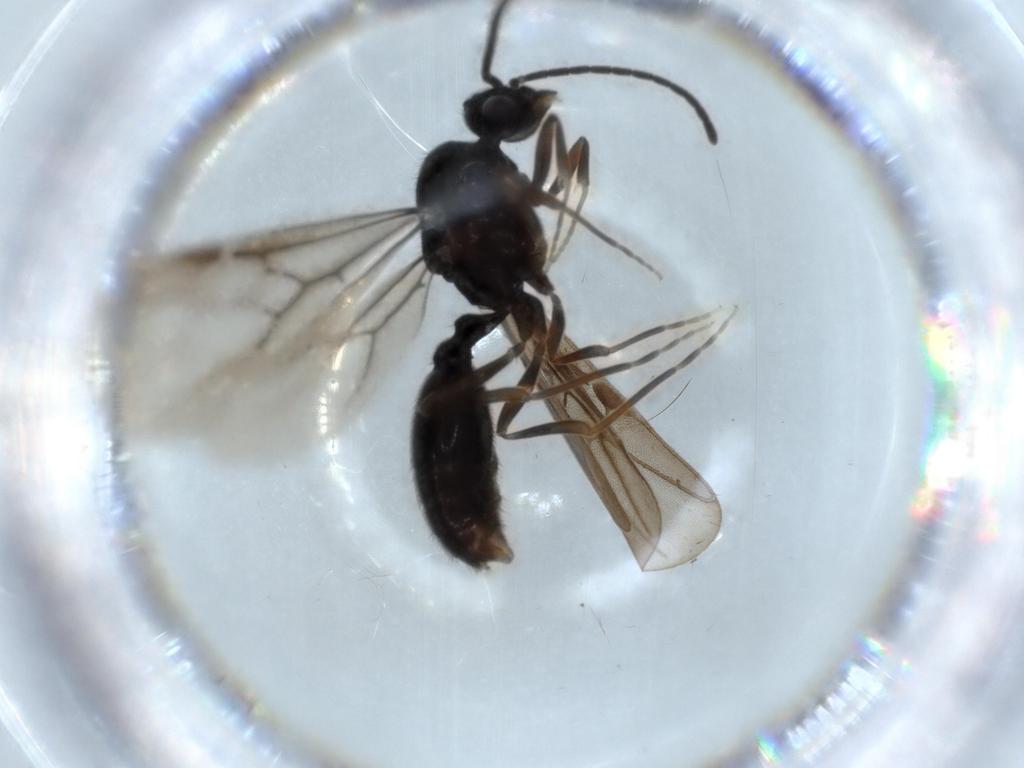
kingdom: Animalia
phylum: Arthropoda
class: Insecta
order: Hymenoptera
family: Formicidae
